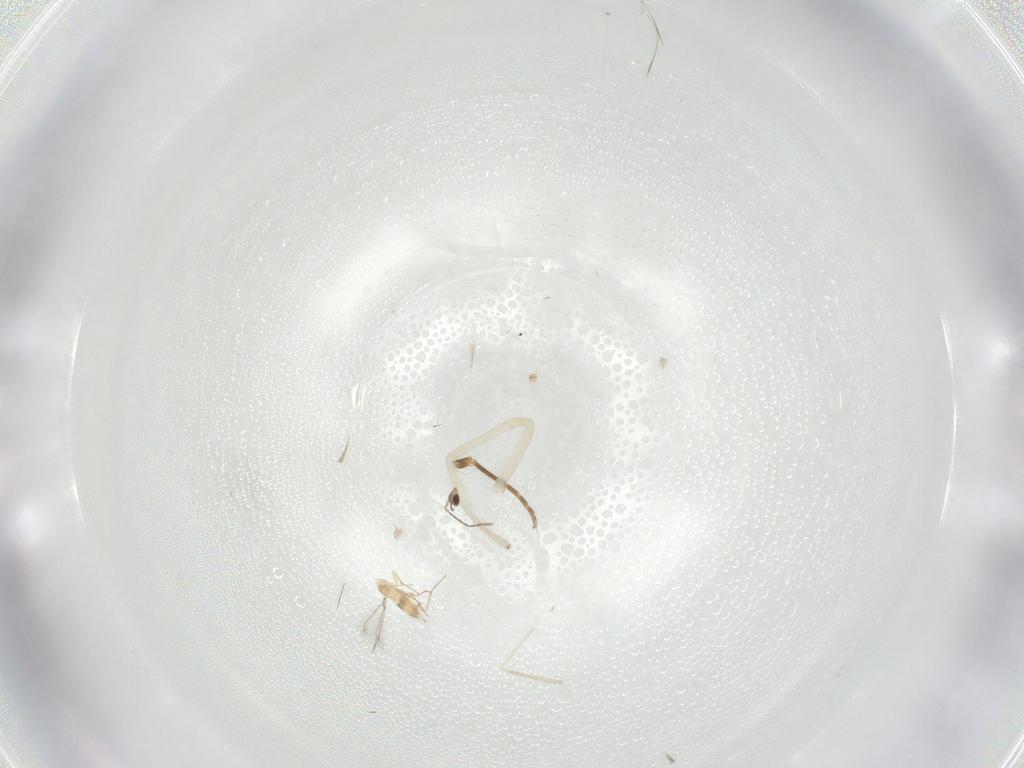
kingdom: Animalia
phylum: Arthropoda
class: Insecta
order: Hymenoptera
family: Formicidae
